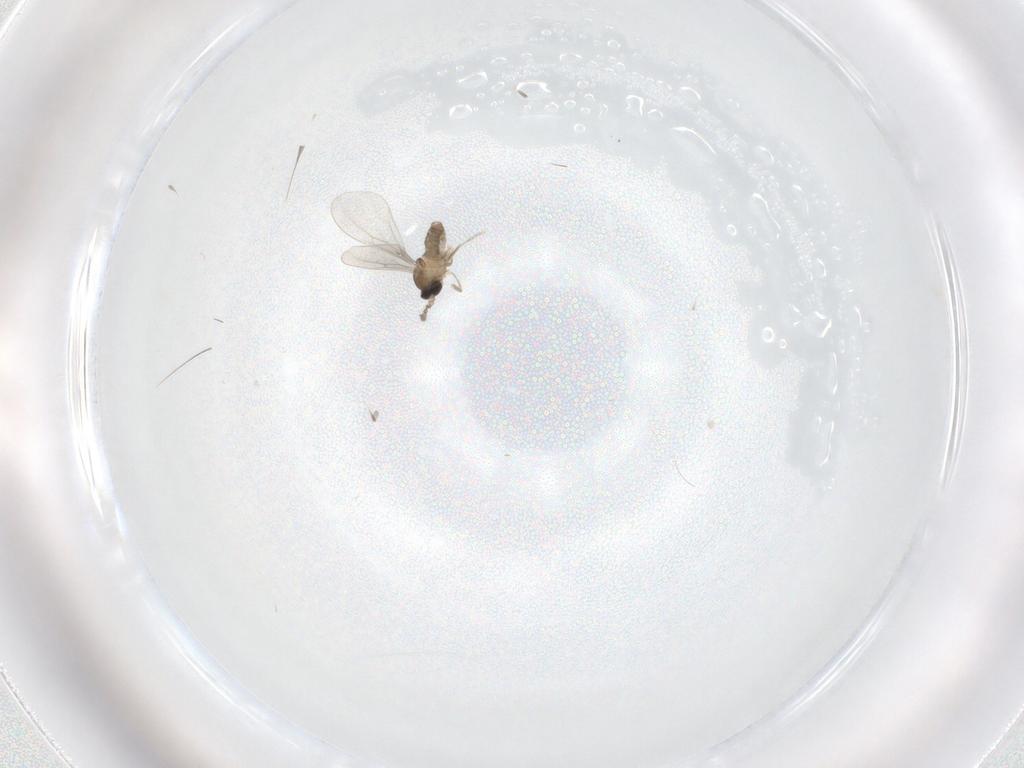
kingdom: Animalia
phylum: Arthropoda
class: Insecta
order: Diptera
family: Cecidomyiidae
